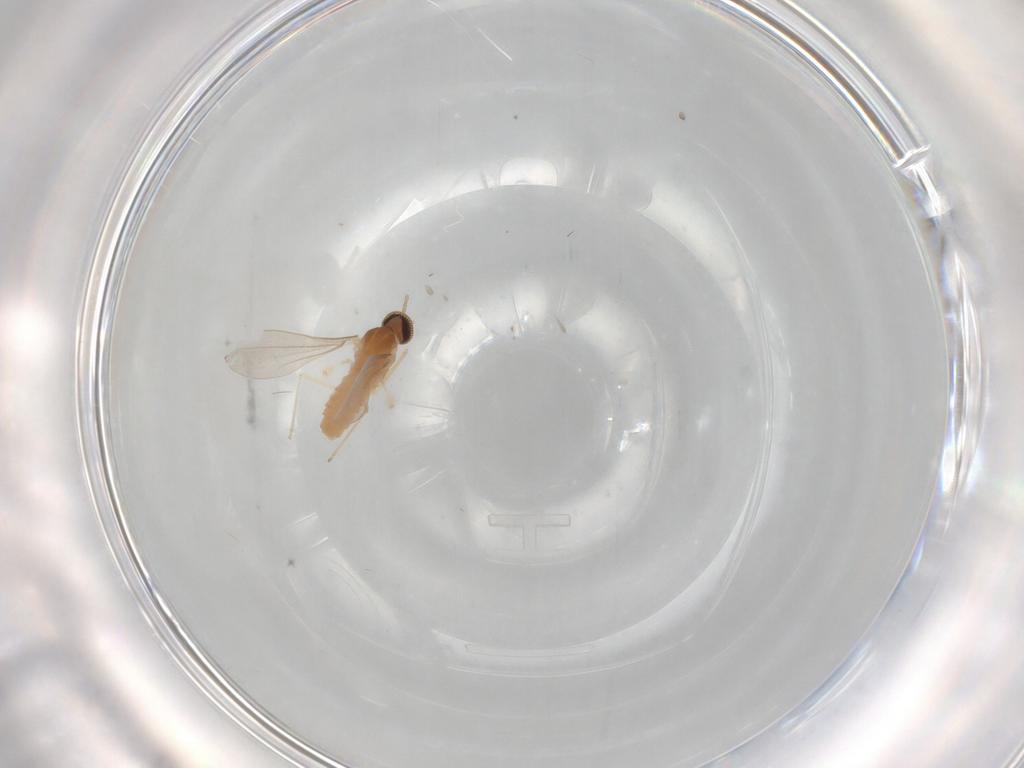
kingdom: Animalia
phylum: Arthropoda
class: Insecta
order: Diptera
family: Cecidomyiidae
